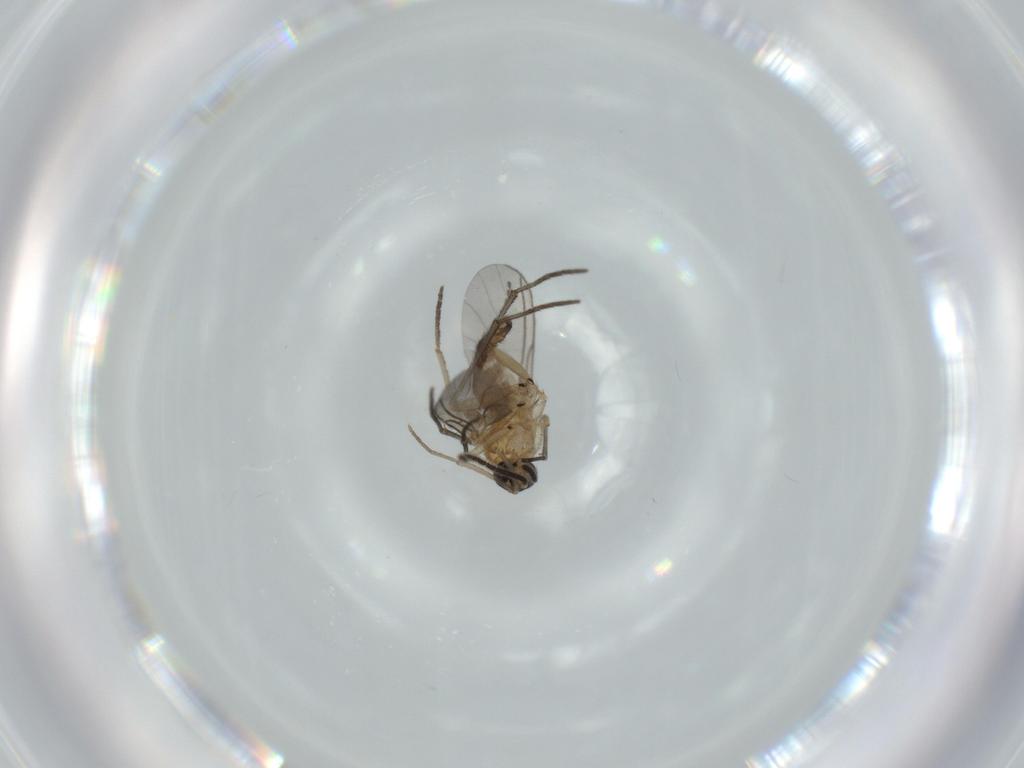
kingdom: Animalia
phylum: Arthropoda
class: Insecta
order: Diptera
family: Sciaridae
